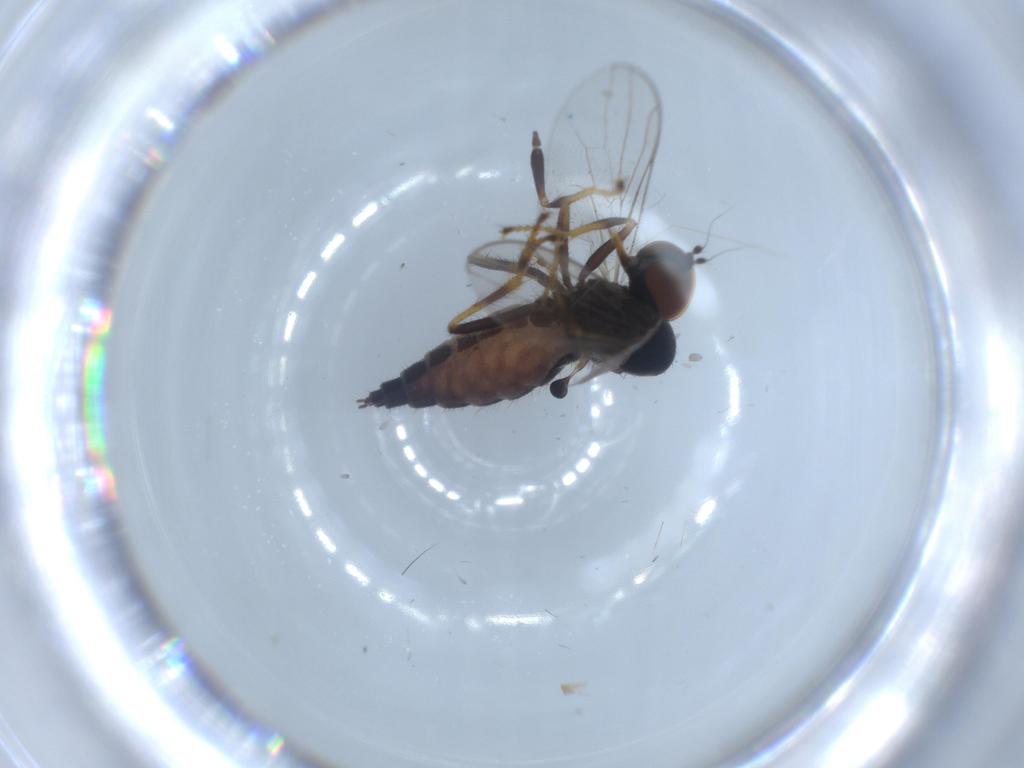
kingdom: Animalia
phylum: Arthropoda
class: Insecta
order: Diptera
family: Hybotidae
